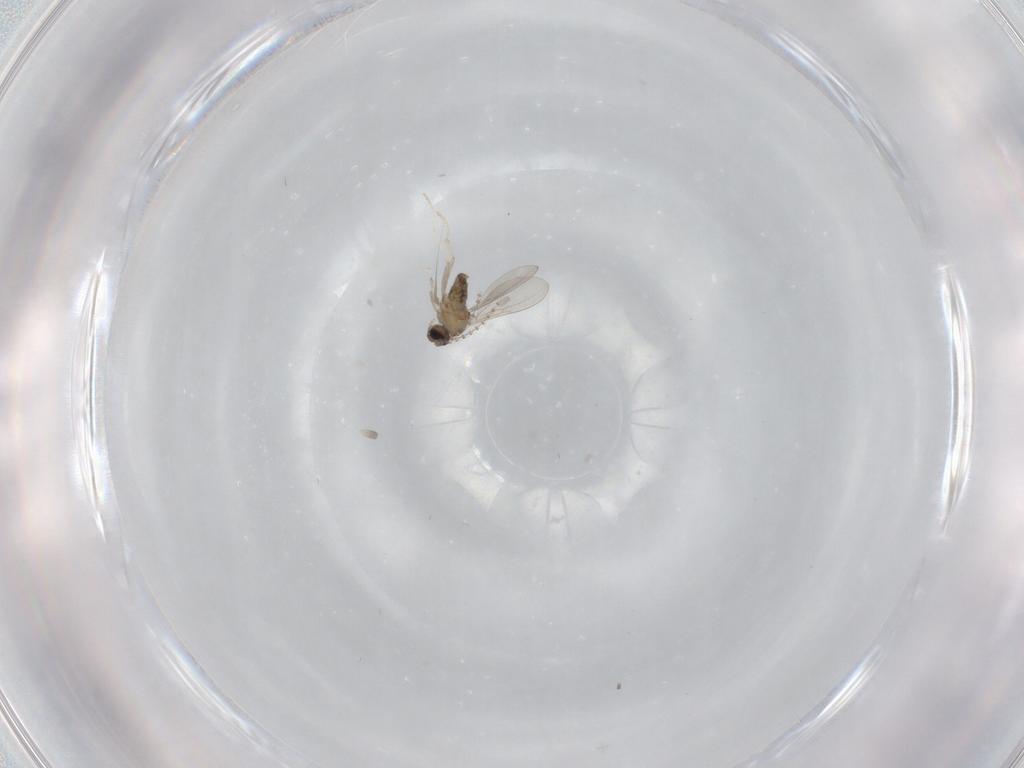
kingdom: Animalia
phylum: Arthropoda
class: Insecta
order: Diptera
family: Cecidomyiidae
